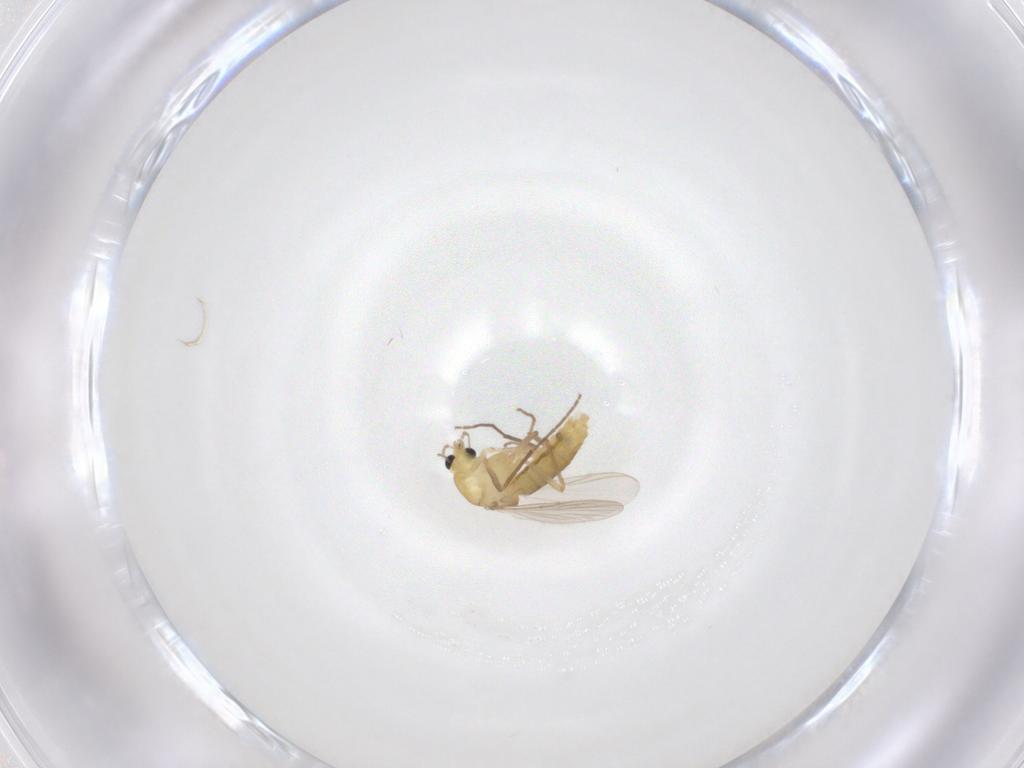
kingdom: Animalia
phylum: Arthropoda
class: Insecta
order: Diptera
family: Chironomidae
